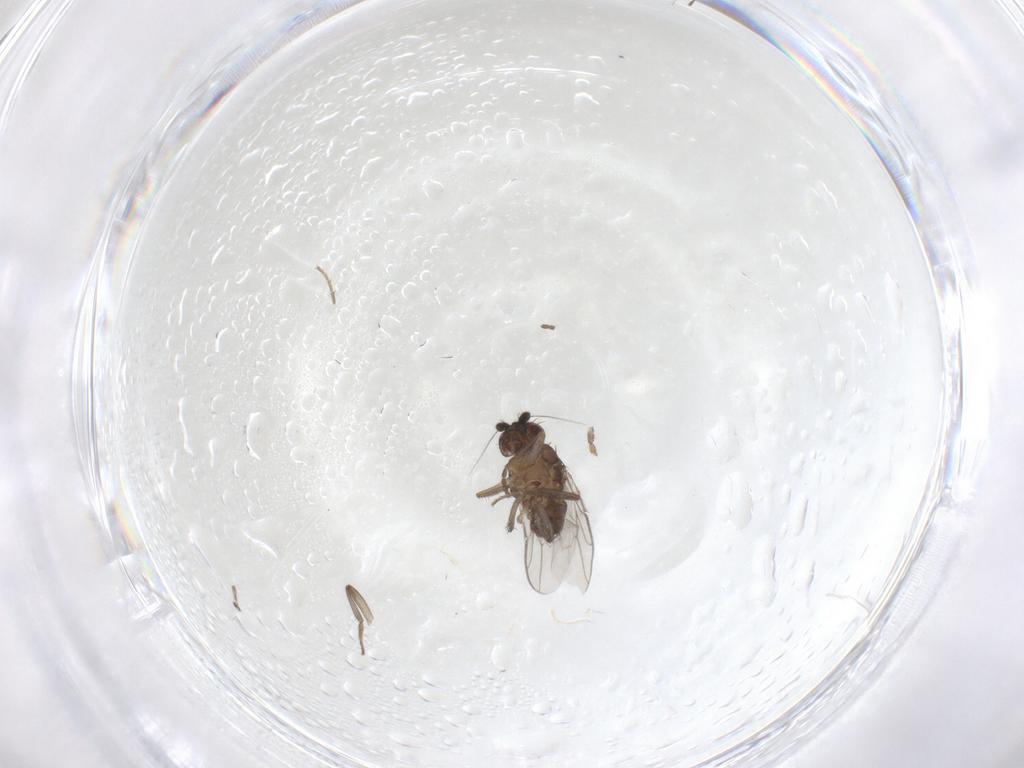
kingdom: Animalia
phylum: Arthropoda
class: Insecta
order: Diptera
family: Sphaeroceridae
